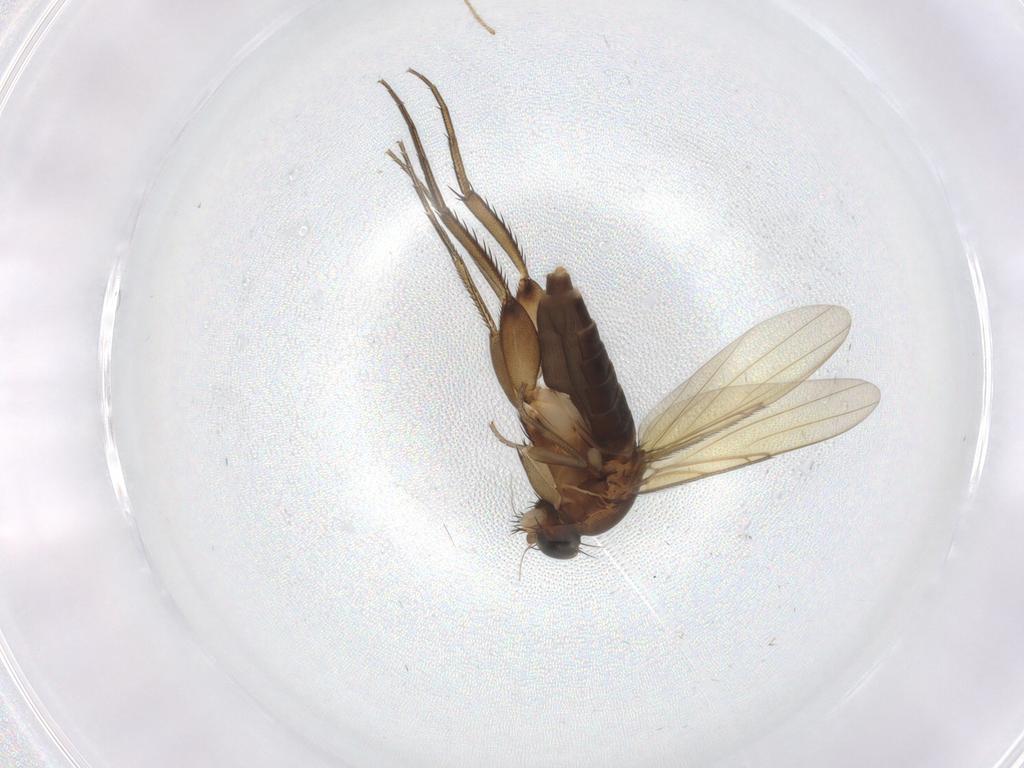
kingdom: Animalia
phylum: Arthropoda
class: Insecta
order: Diptera
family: Phoridae
